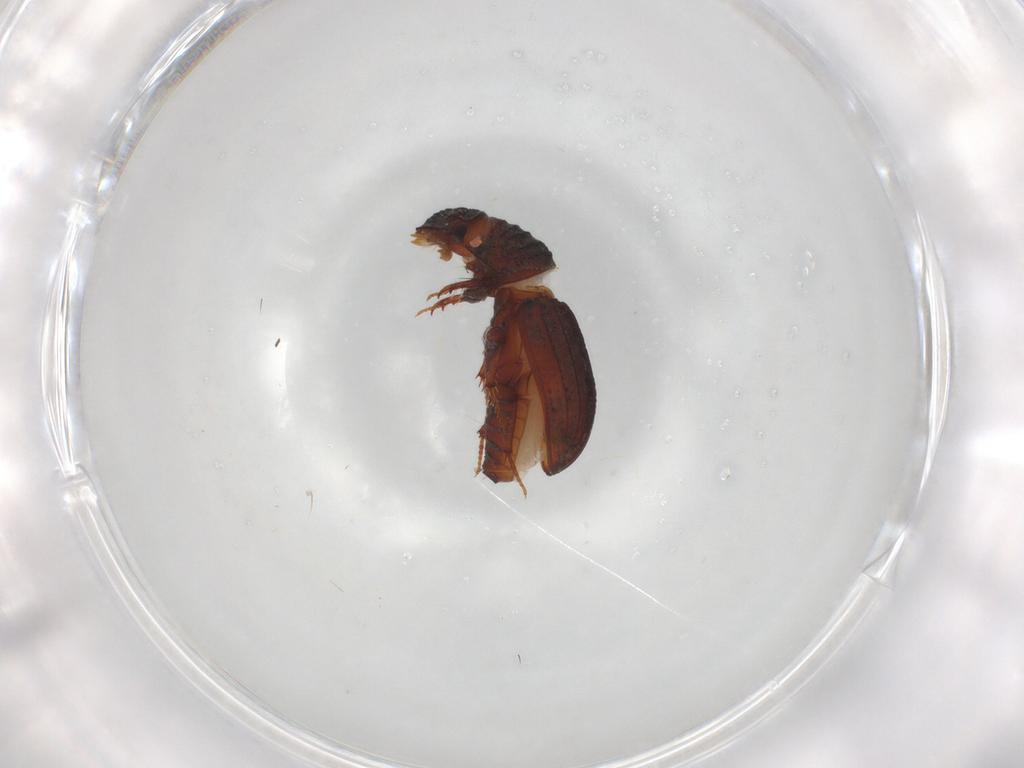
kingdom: Animalia
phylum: Arthropoda
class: Insecta
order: Coleoptera
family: Scarabaeidae
